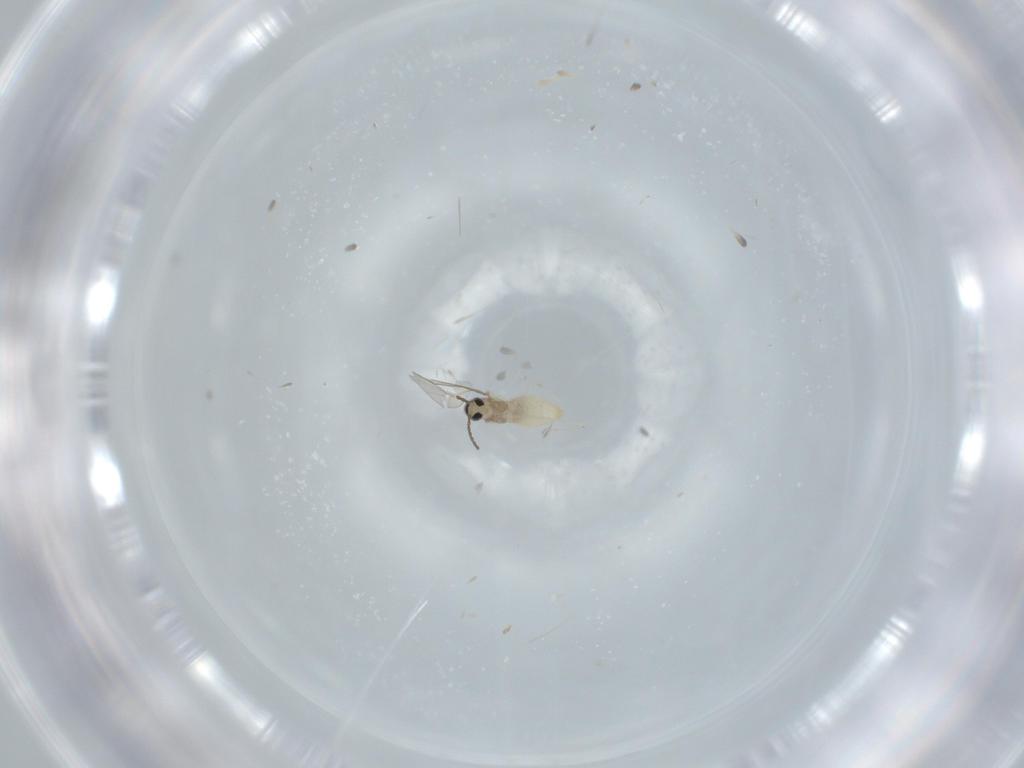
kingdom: Animalia
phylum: Arthropoda
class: Insecta
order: Diptera
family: Cecidomyiidae
